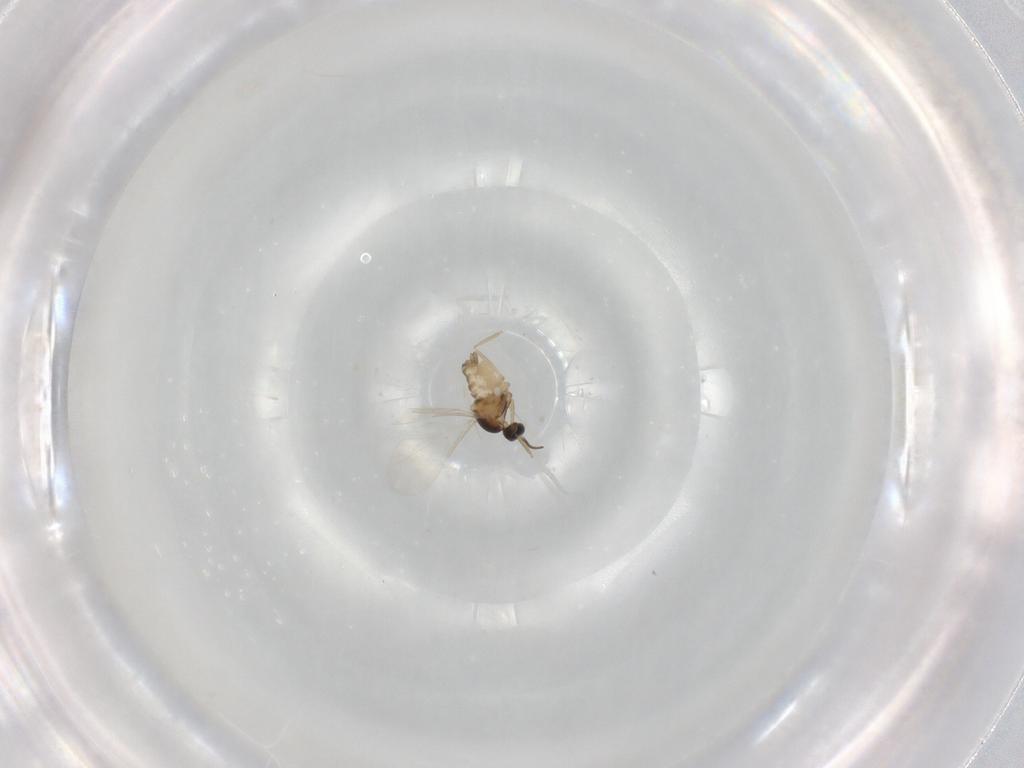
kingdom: Animalia
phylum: Arthropoda
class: Insecta
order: Diptera
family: Cecidomyiidae
